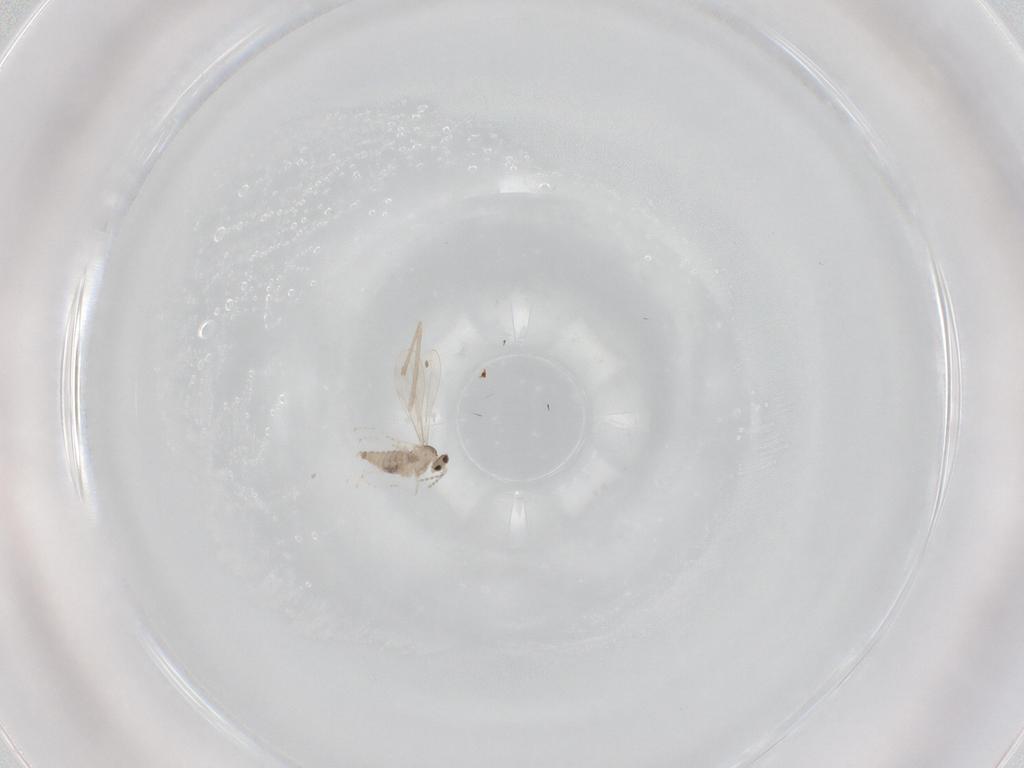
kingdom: Animalia
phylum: Arthropoda
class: Insecta
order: Diptera
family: Cecidomyiidae
